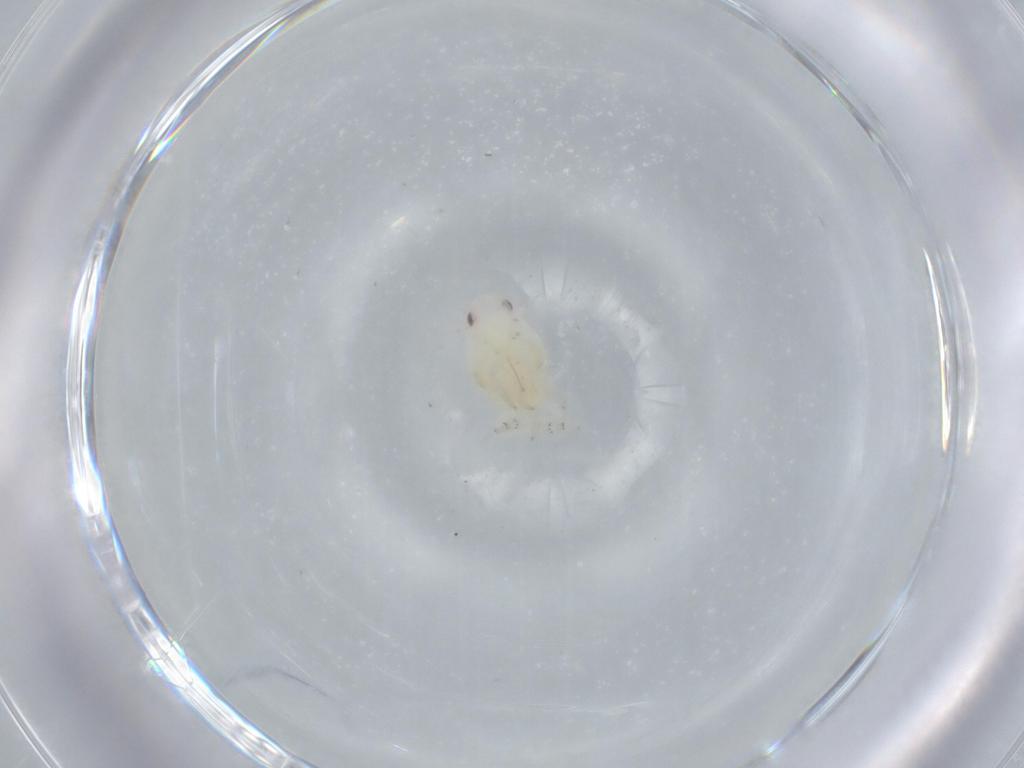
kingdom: Animalia
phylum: Arthropoda
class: Insecta
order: Hemiptera
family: Flatidae
